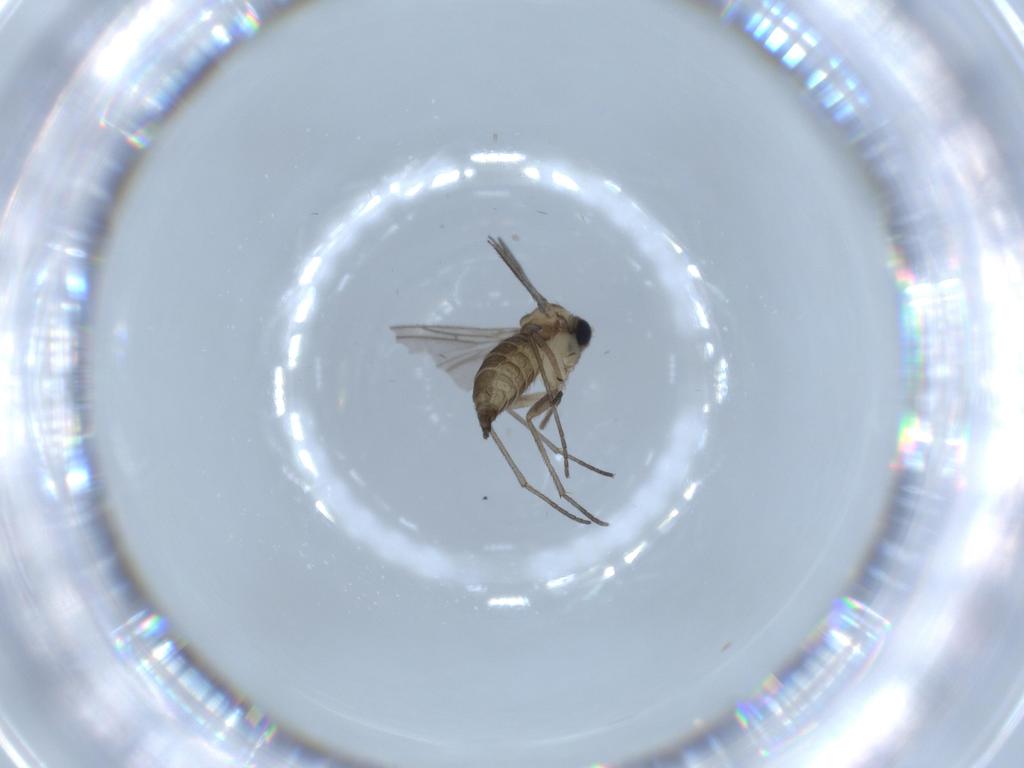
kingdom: Animalia
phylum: Arthropoda
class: Insecta
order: Diptera
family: Sciaridae
